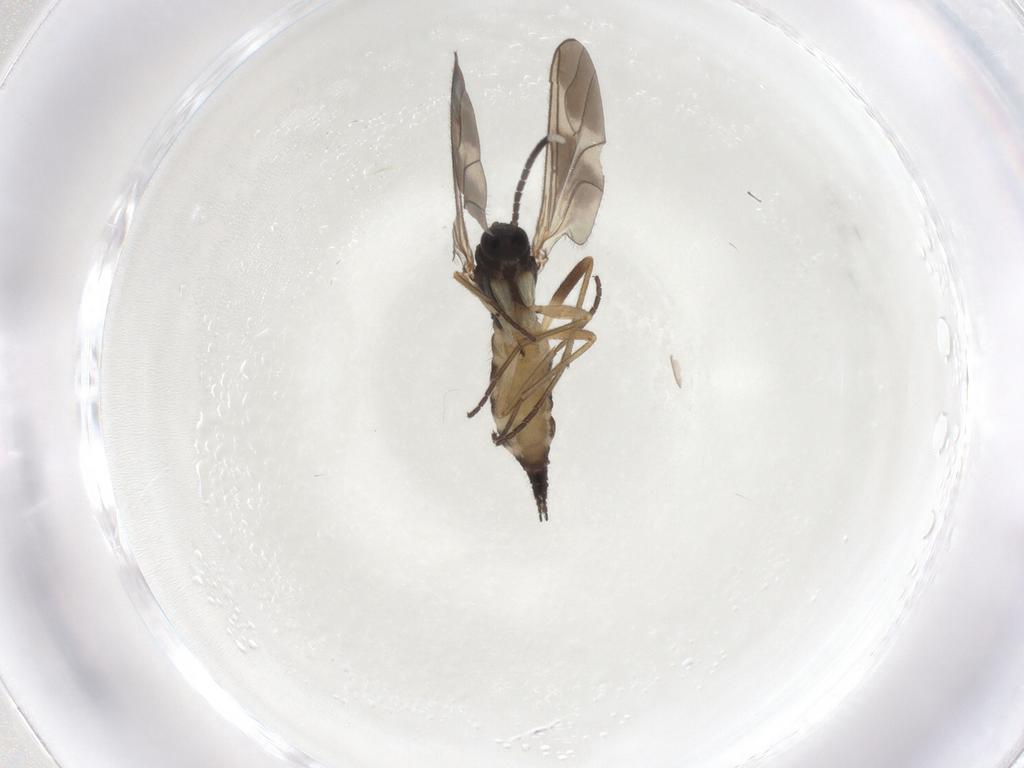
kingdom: Animalia
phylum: Arthropoda
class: Insecta
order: Diptera
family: Sciaridae
